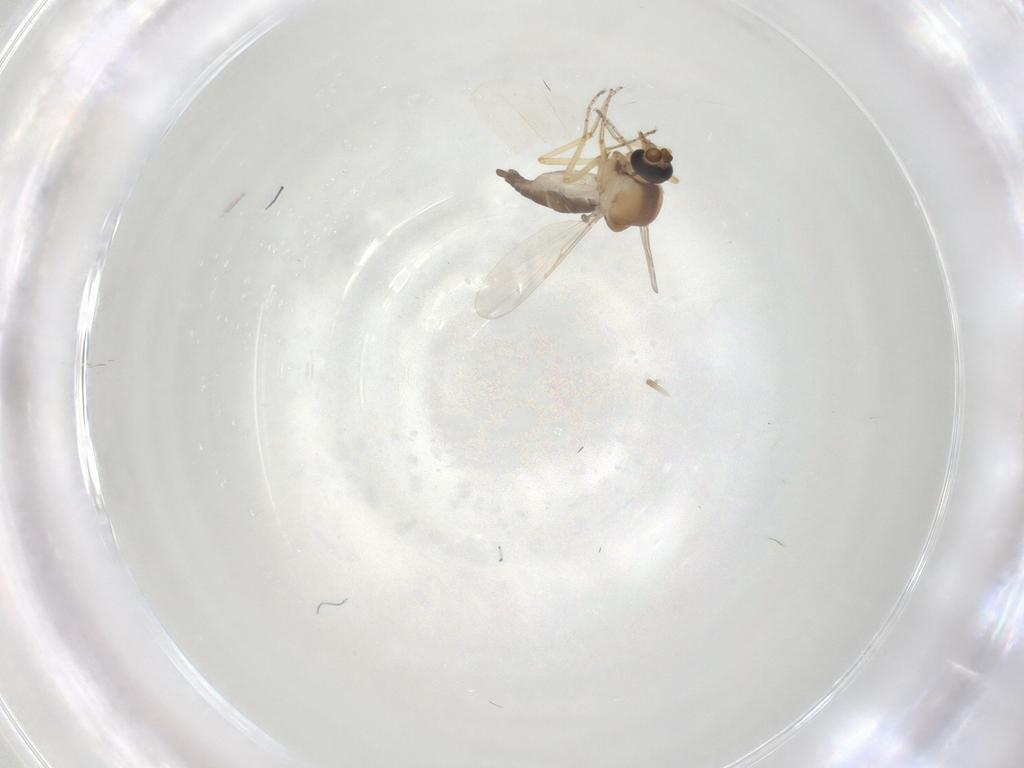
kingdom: Animalia
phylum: Arthropoda
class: Insecta
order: Diptera
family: Ceratopogonidae
